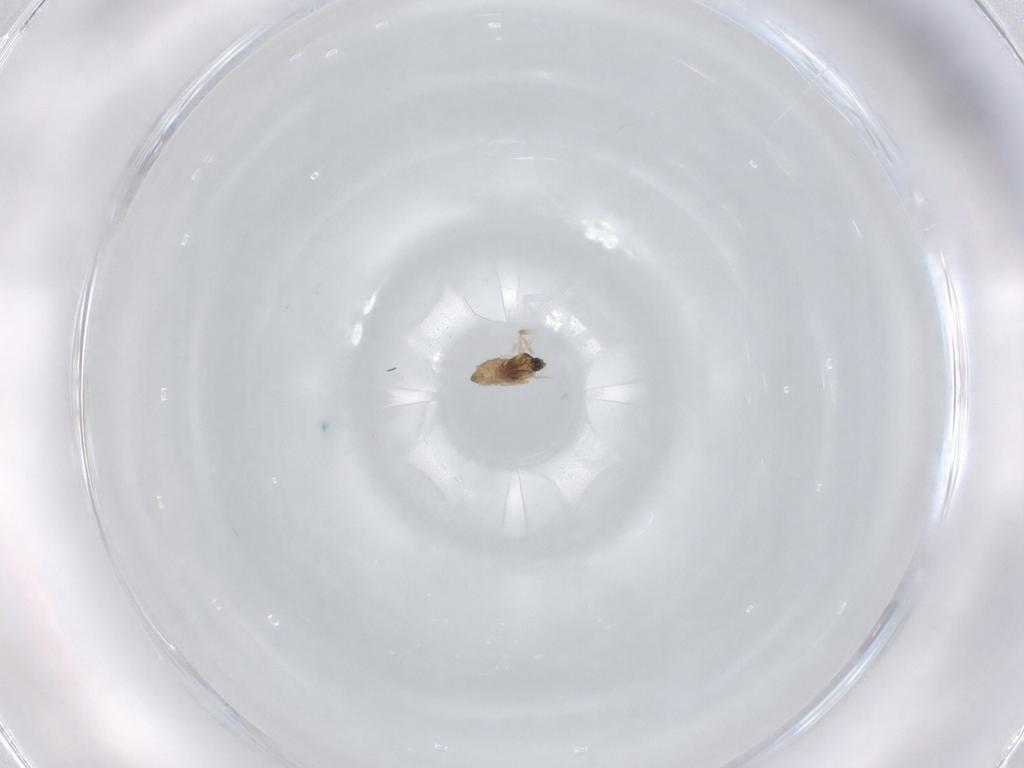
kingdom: Animalia
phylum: Arthropoda
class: Insecta
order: Diptera
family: Cecidomyiidae
